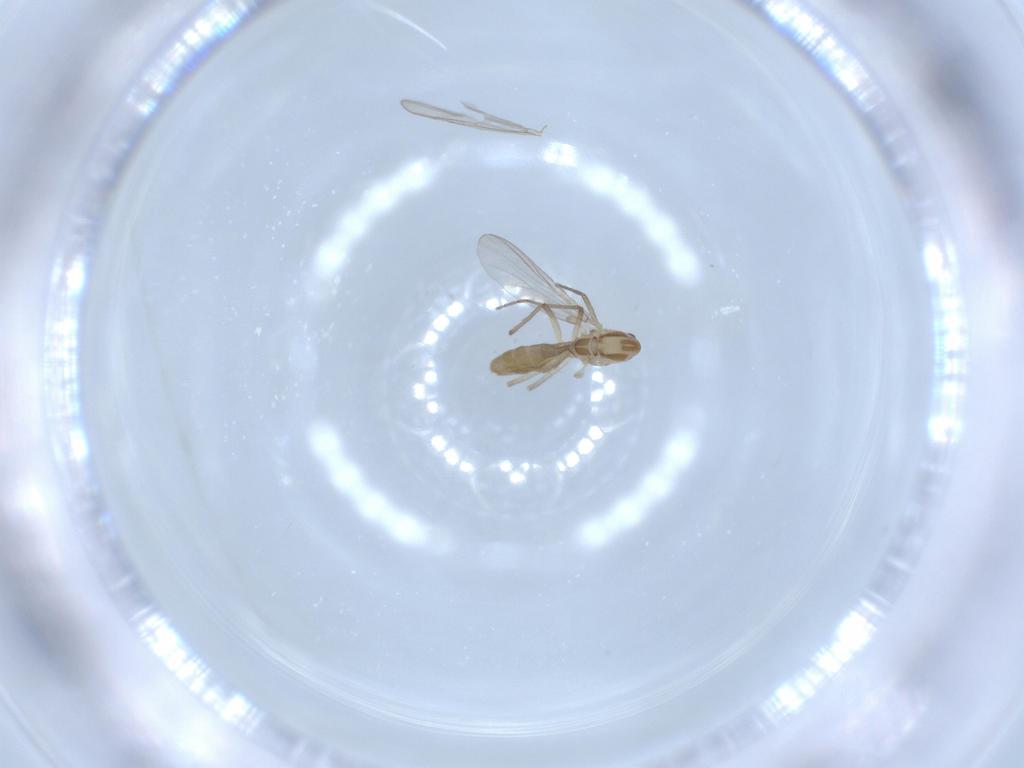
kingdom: Animalia
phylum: Arthropoda
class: Insecta
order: Diptera
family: Chironomidae
